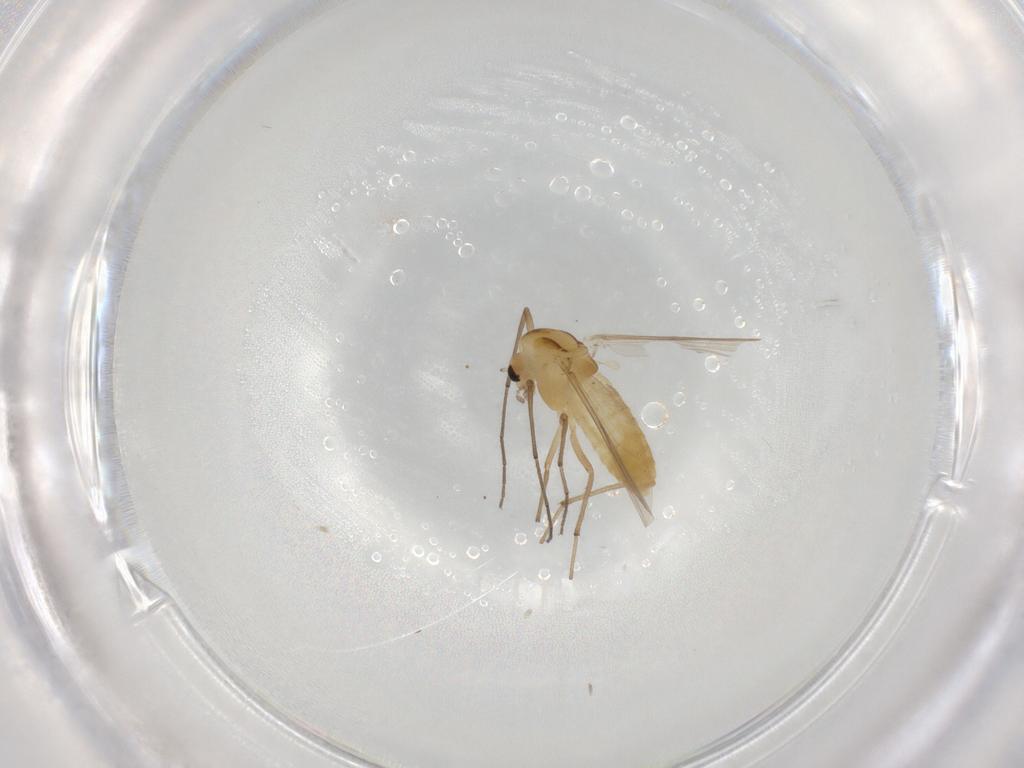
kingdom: Animalia
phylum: Arthropoda
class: Insecta
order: Diptera
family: Chironomidae
